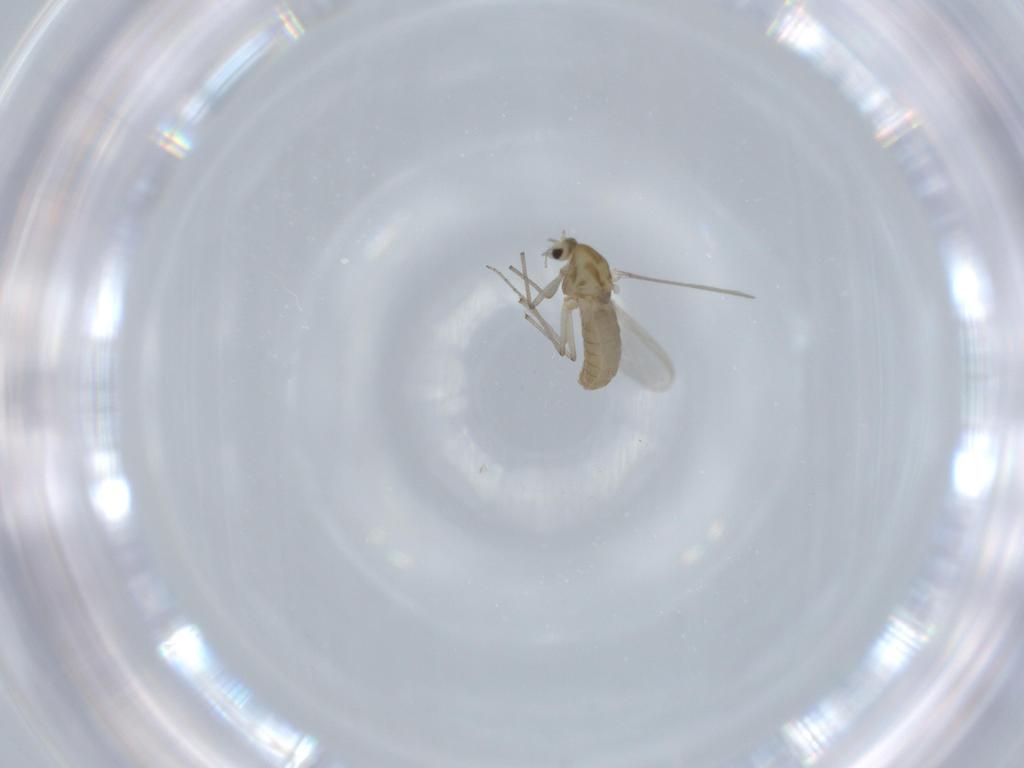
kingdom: Animalia
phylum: Arthropoda
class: Insecta
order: Diptera
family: Chironomidae
